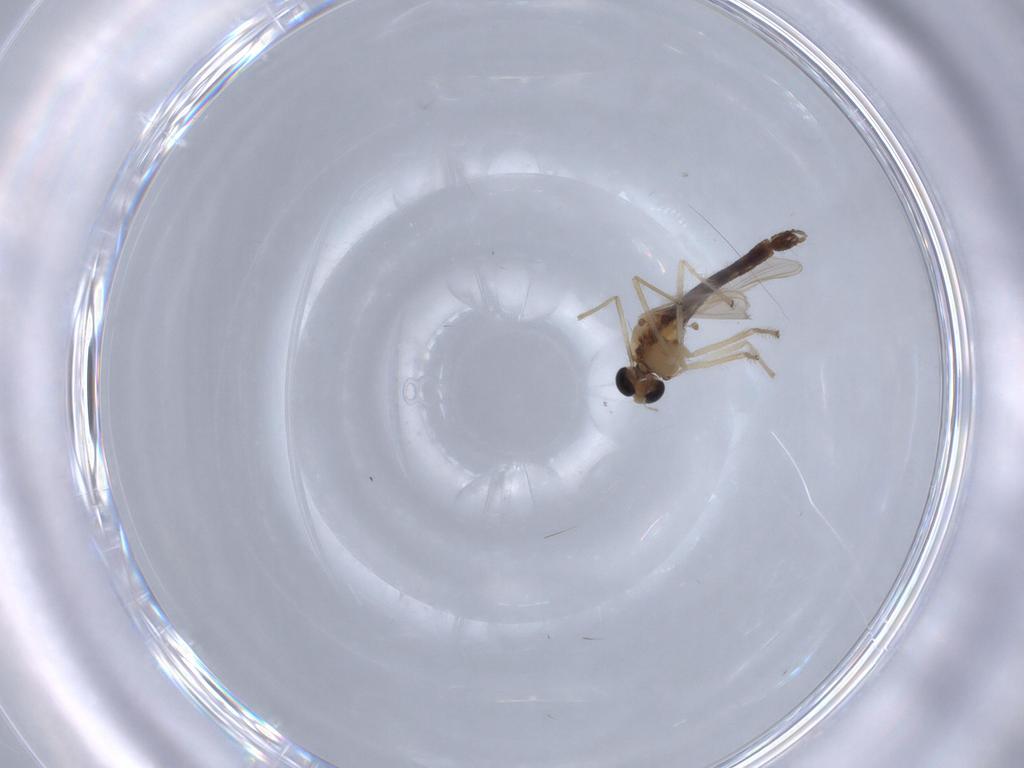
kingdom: Animalia
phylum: Arthropoda
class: Insecta
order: Diptera
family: Chironomidae
